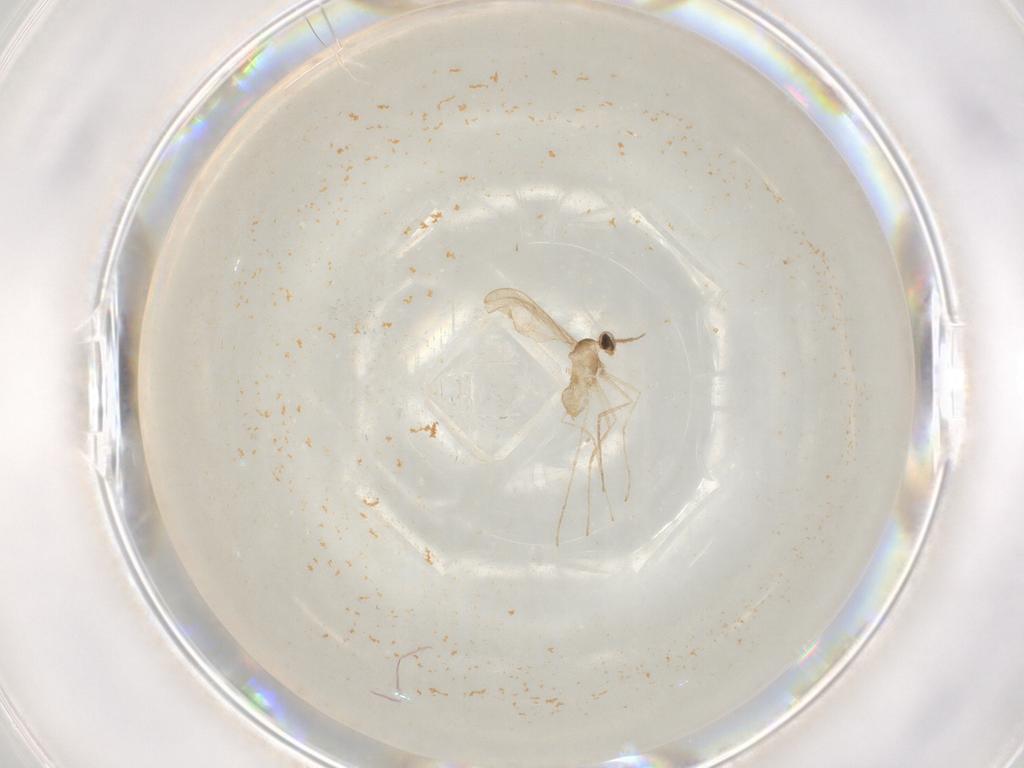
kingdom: Animalia
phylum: Arthropoda
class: Insecta
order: Diptera
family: Cecidomyiidae
